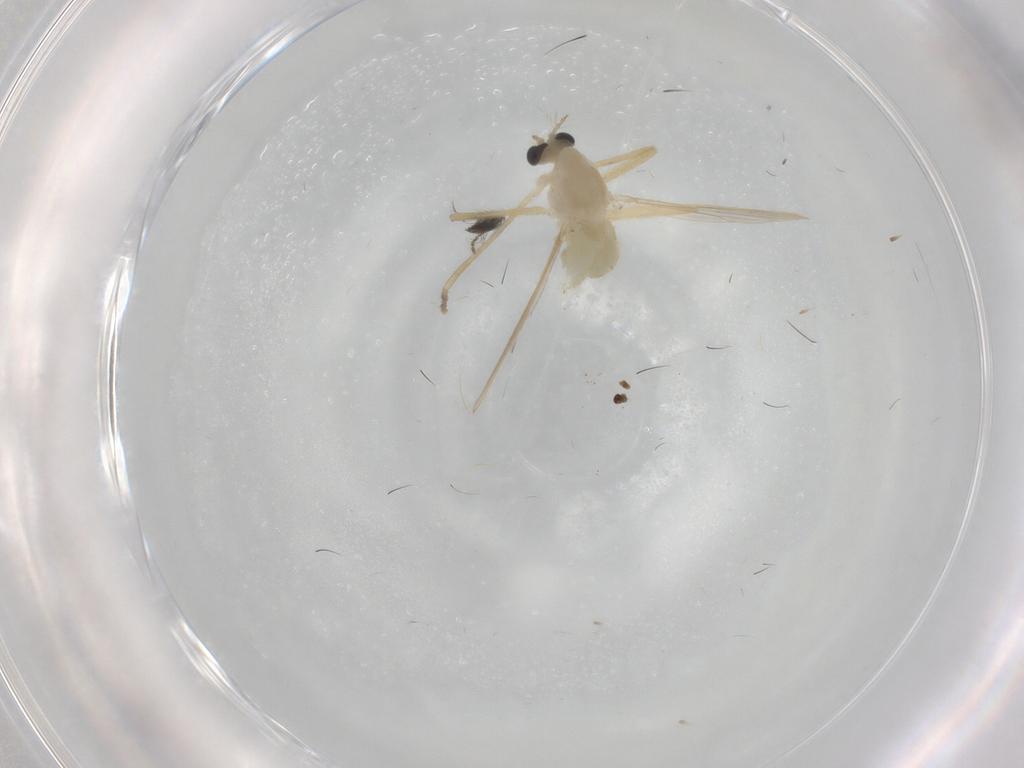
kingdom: Animalia
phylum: Arthropoda
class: Insecta
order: Diptera
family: Chironomidae
